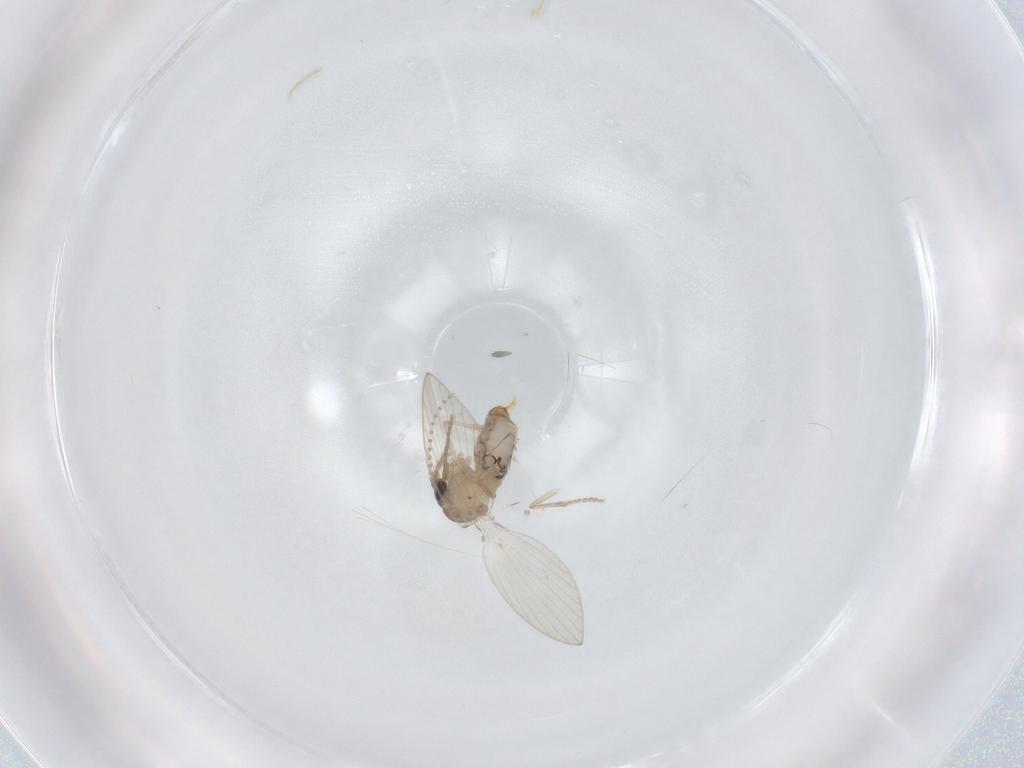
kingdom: Animalia
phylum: Arthropoda
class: Insecta
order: Diptera
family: Psychodidae
